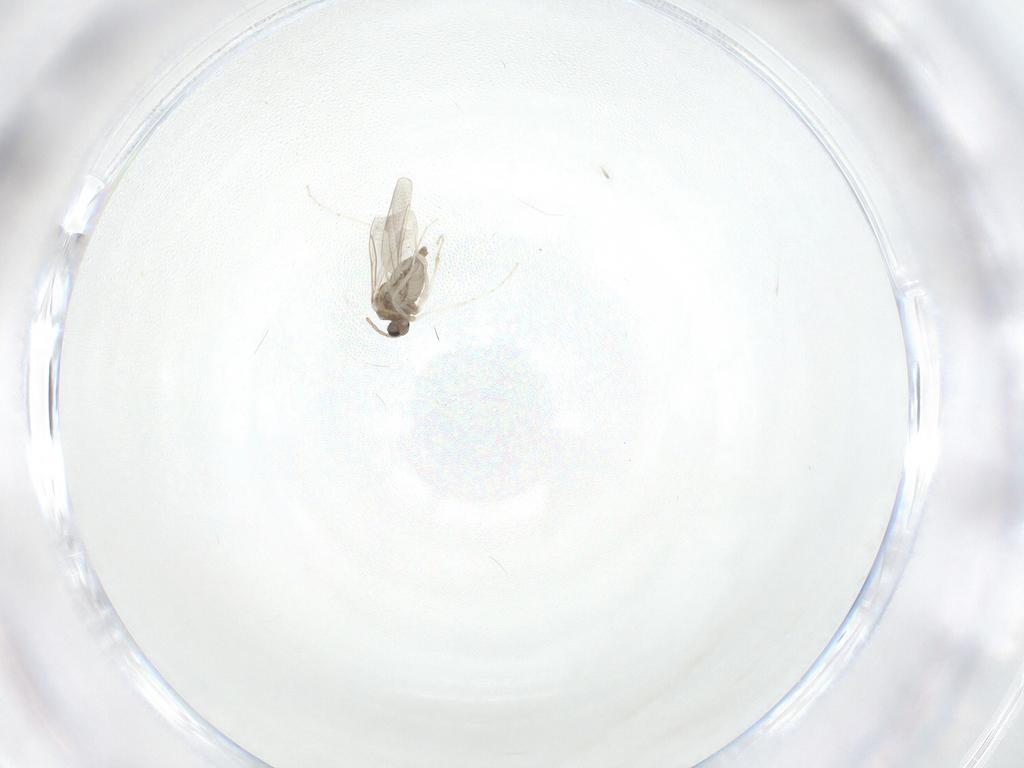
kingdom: Animalia
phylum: Arthropoda
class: Insecta
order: Diptera
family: Cecidomyiidae
